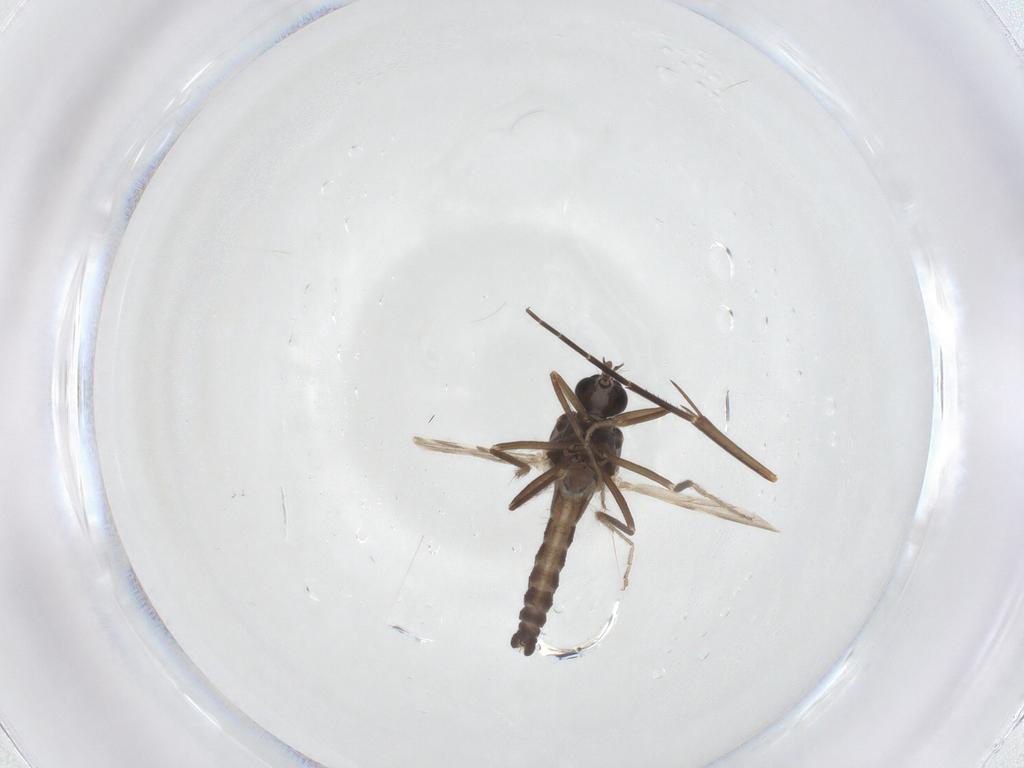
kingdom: Animalia
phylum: Arthropoda
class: Insecta
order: Diptera
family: Ceratopogonidae
